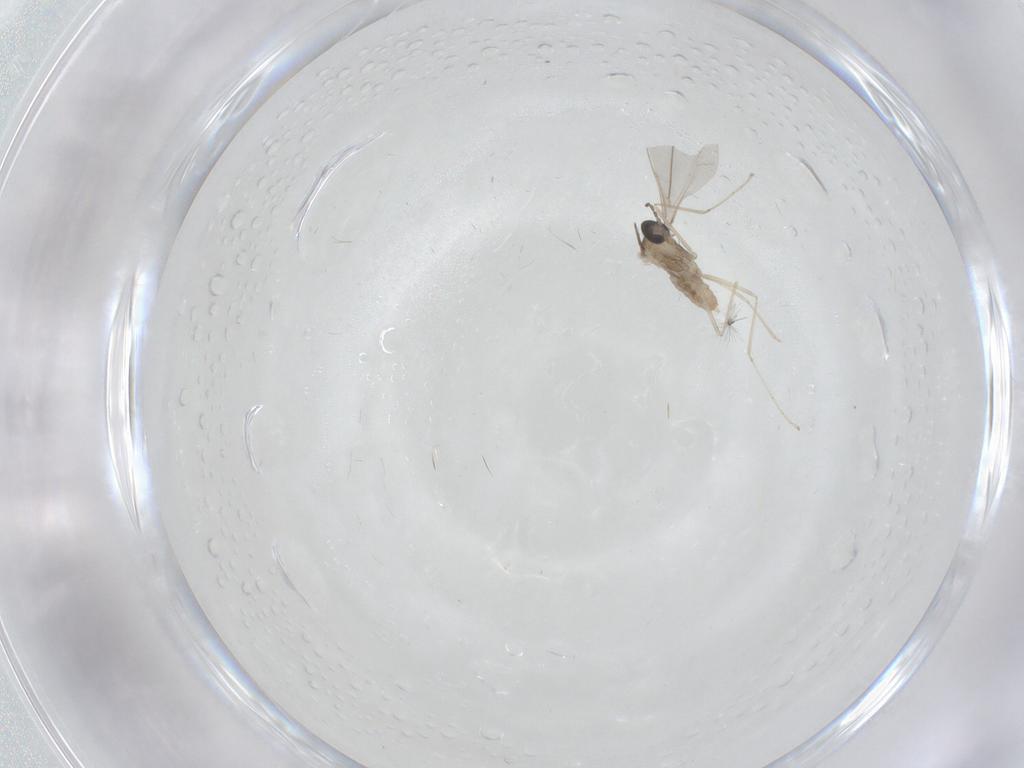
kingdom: Animalia
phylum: Arthropoda
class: Insecta
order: Diptera
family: Cecidomyiidae
